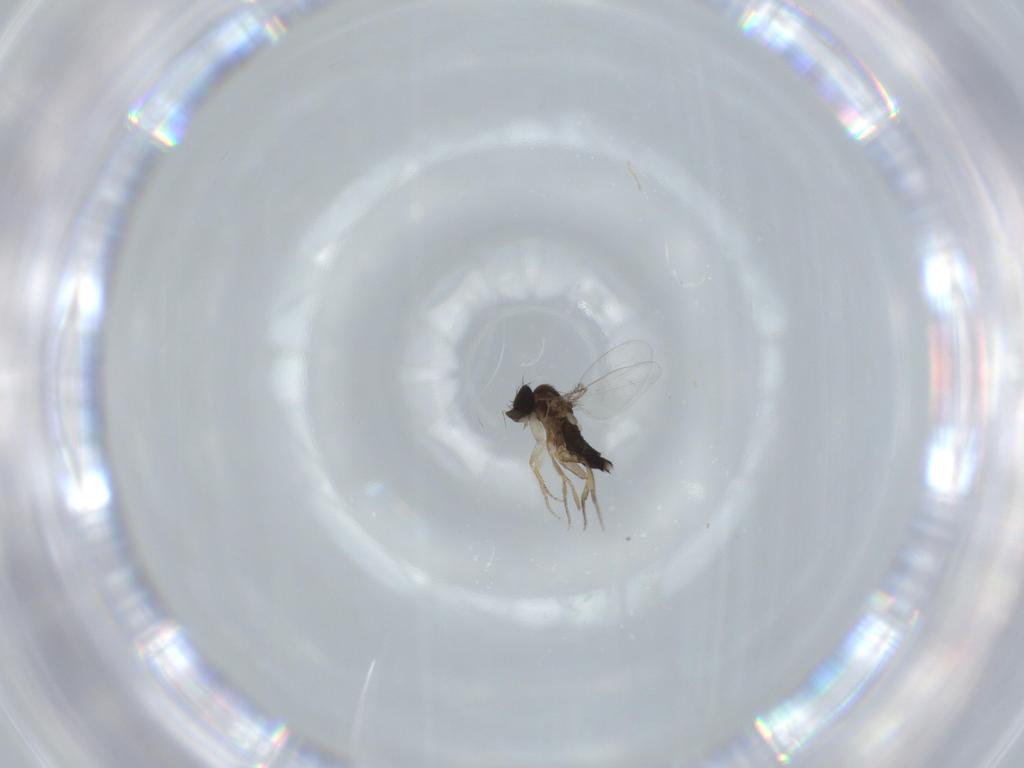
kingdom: Animalia
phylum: Arthropoda
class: Insecta
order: Diptera
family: Phoridae
